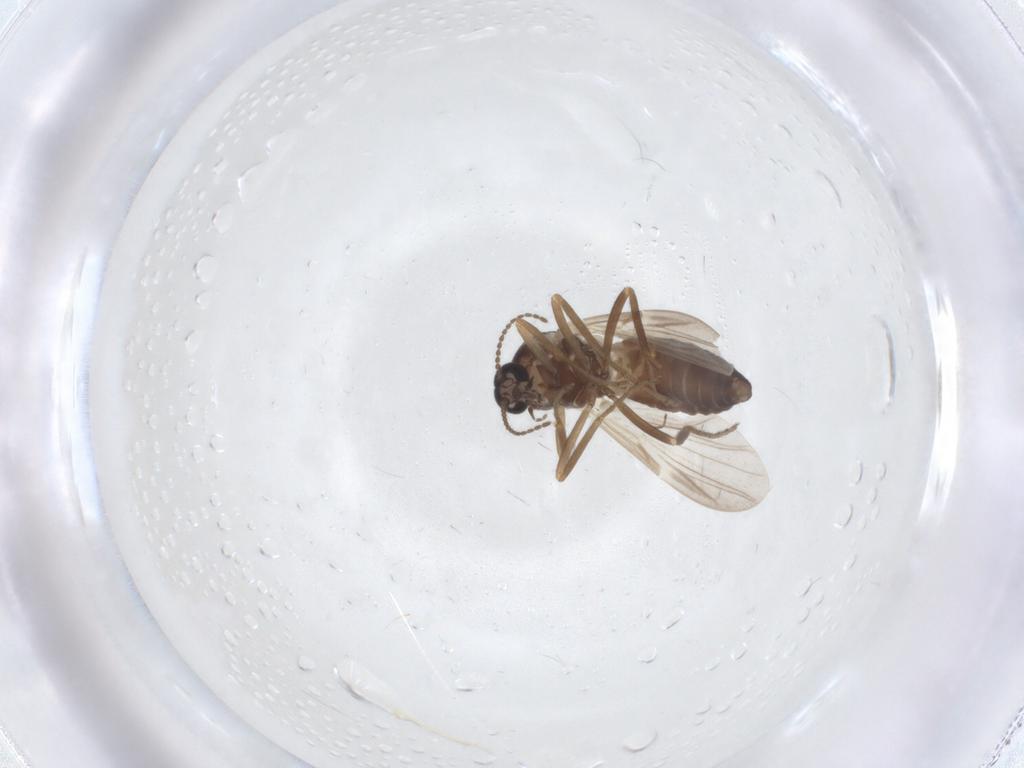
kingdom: Animalia
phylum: Arthropoda
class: Insecta
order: Diptera
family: Ceratopogonidae
